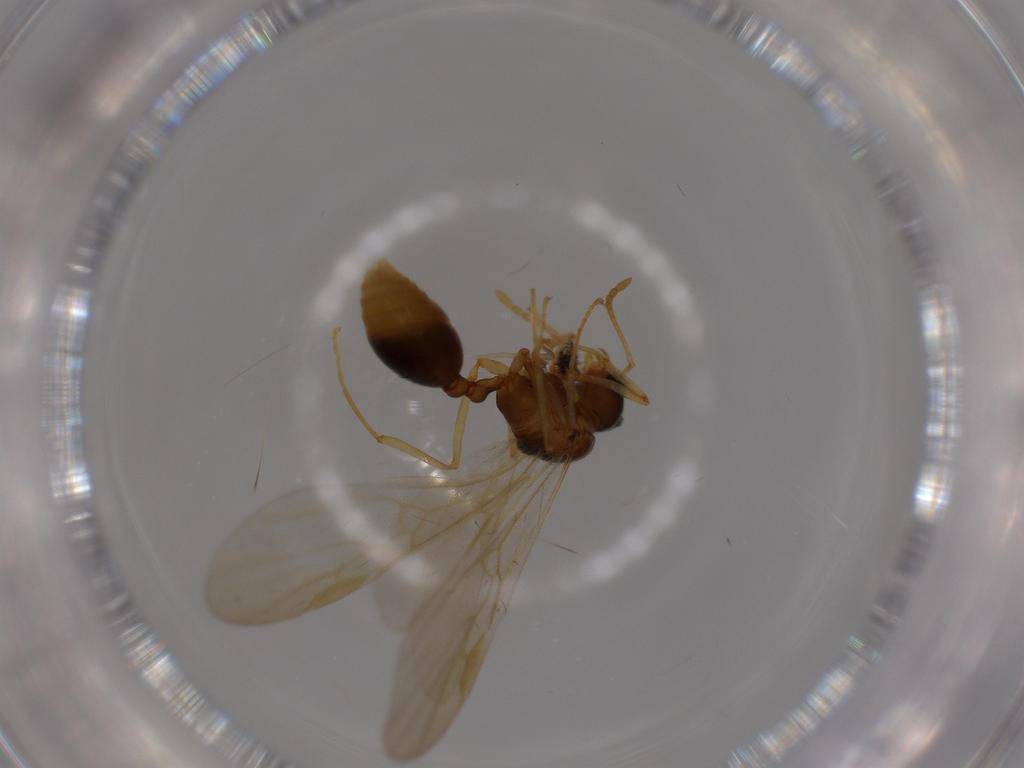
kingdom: Animalia
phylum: Arthropoda
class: Insecta
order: Hymenoptera
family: Formicidae
